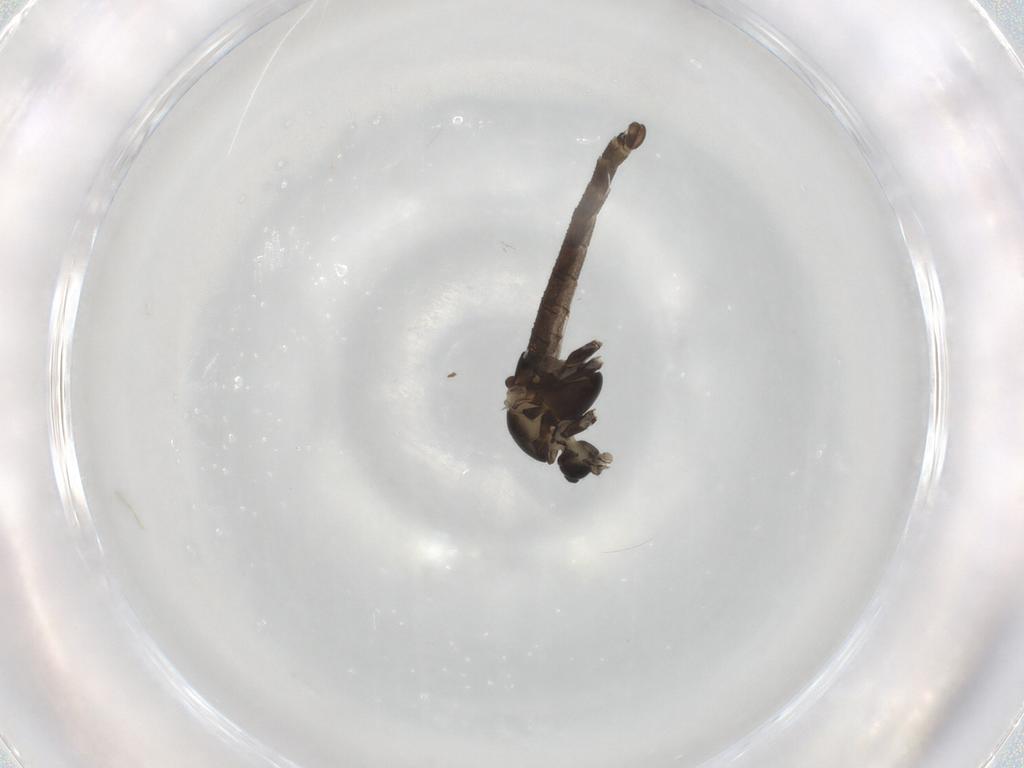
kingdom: Animalia
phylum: Arthropoda
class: Insecta
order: Diptera
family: Chironomidae
